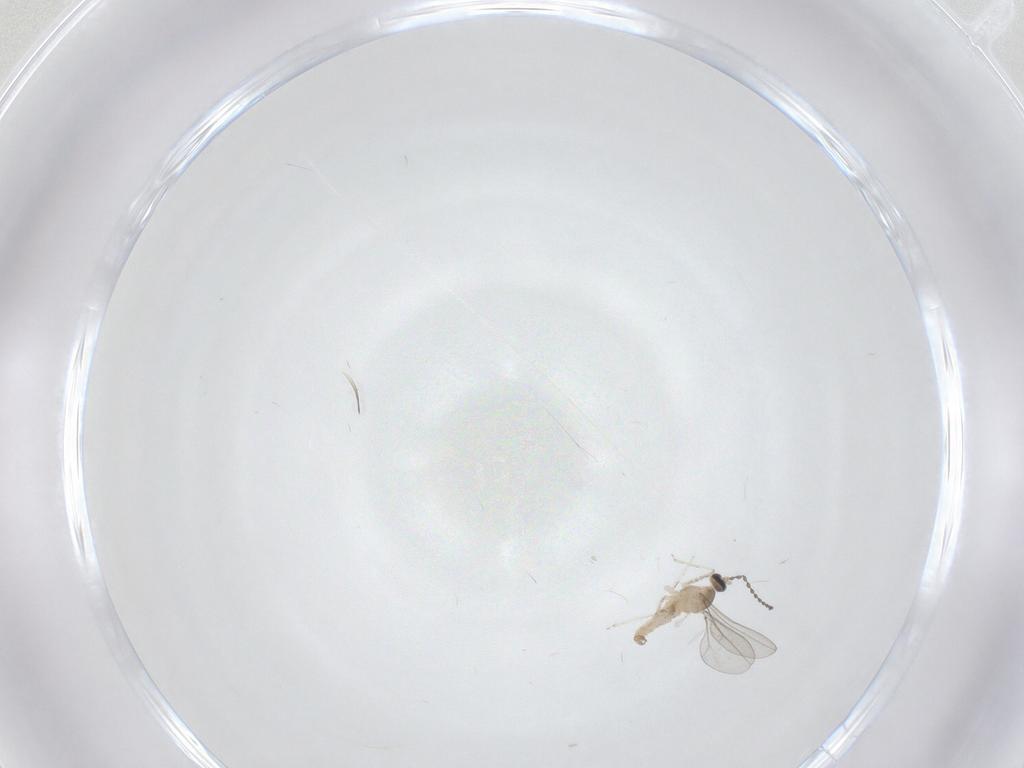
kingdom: Animalia
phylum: Arthropoda
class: Insecta
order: Diptera
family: Cecidomyiidae
